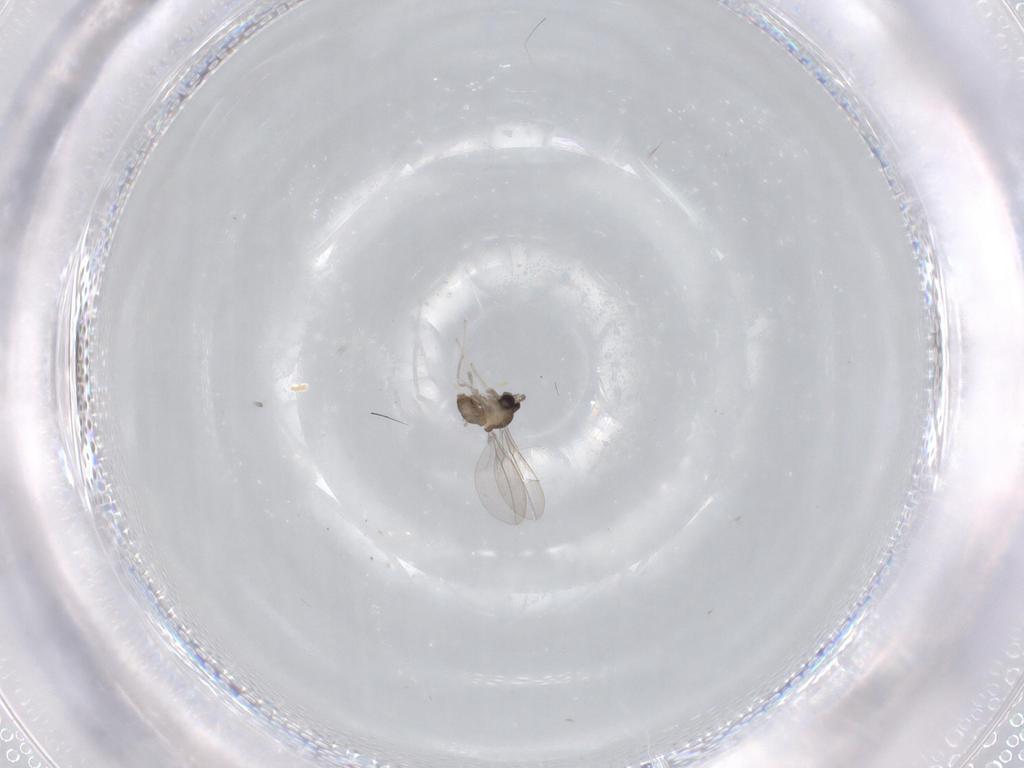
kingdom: Animalia
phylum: Arthropoda
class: Insecta
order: Diptera
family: Cecidomyiidae
